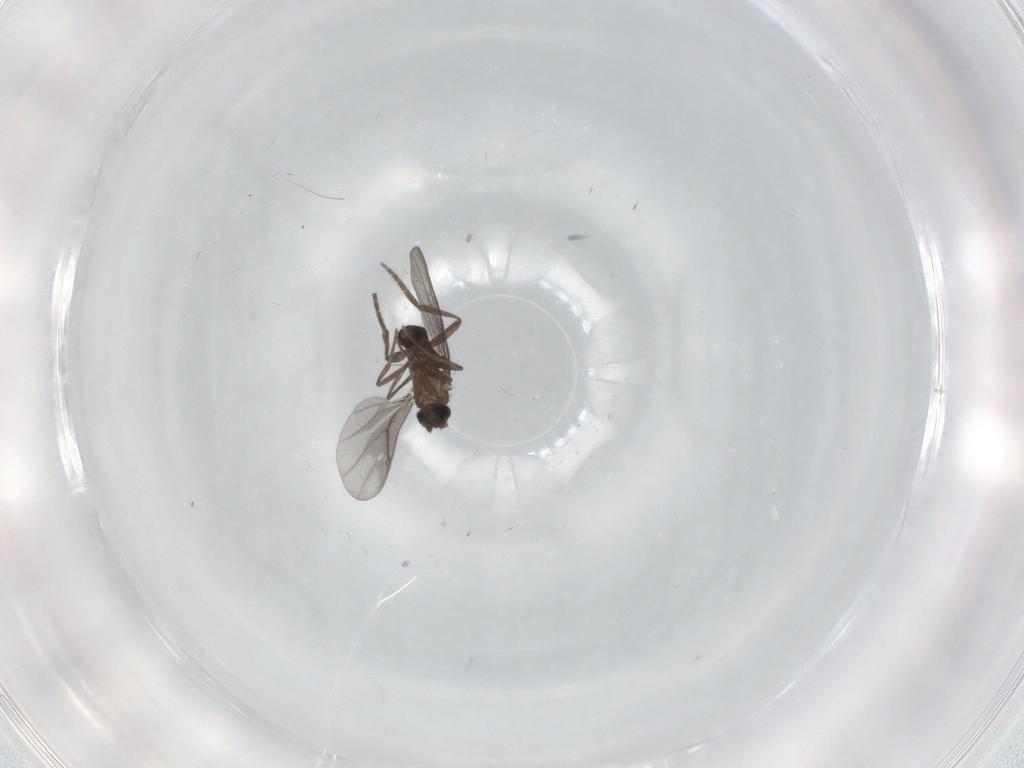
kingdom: Animalia
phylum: Arthropoda
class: Insecta
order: Diptera
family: Milichiidae
